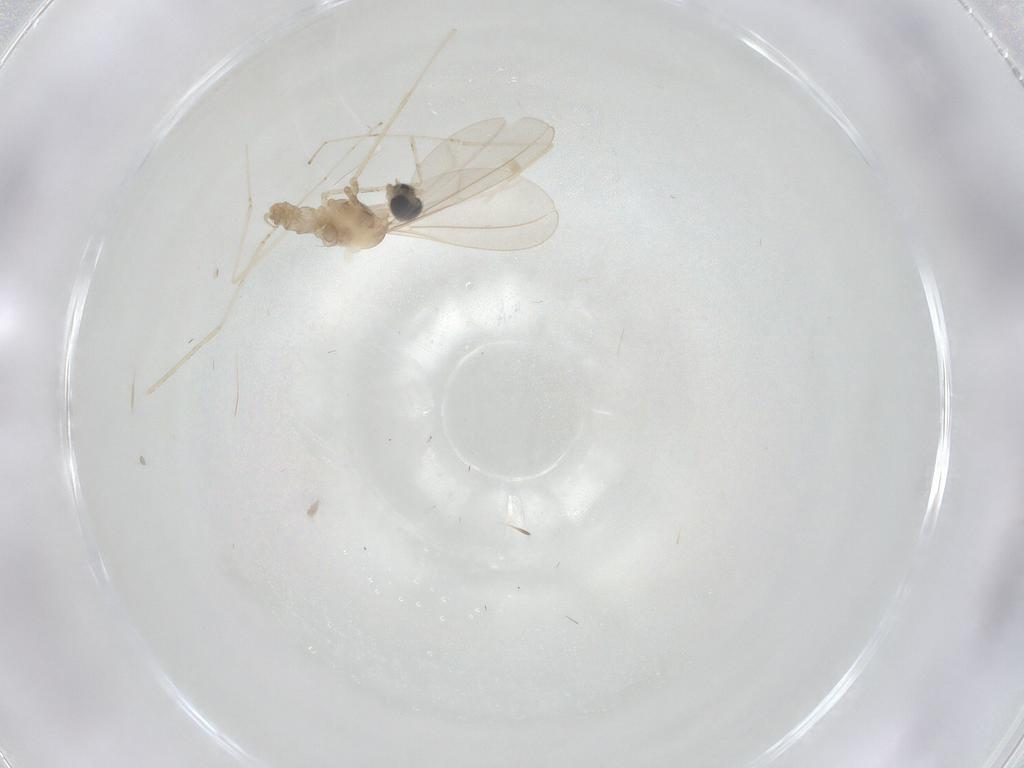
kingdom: Animalia
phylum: Arthropoda
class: Insecta
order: Diptera
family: Cecidomyiidae
